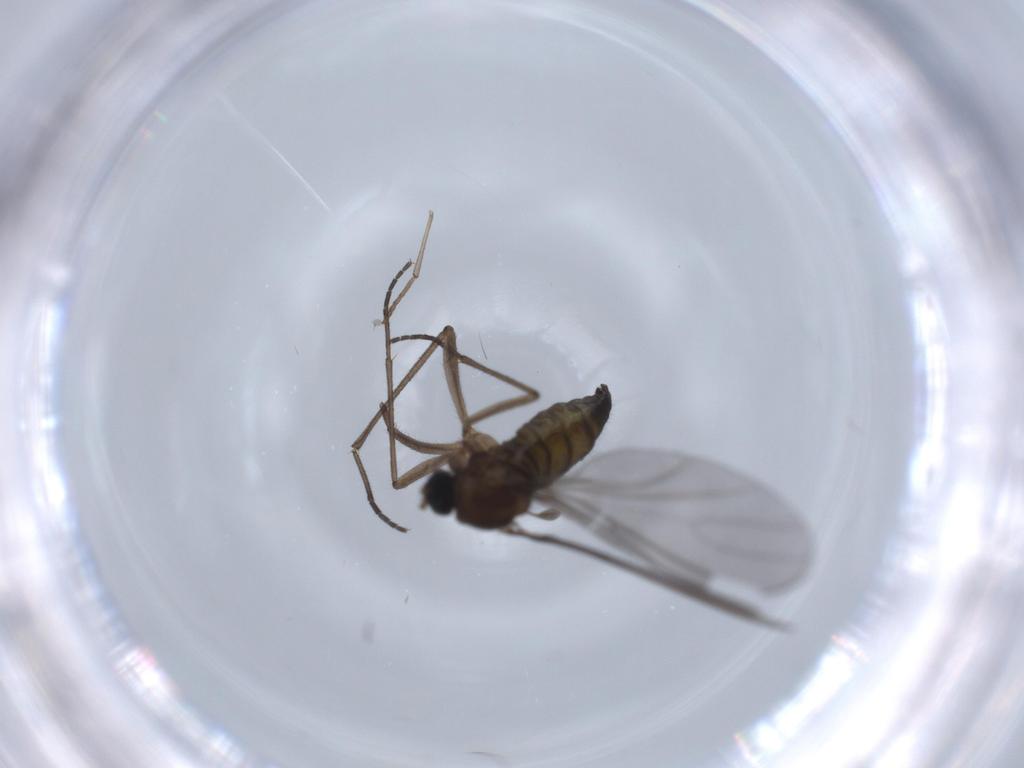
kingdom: Animalia
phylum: Arthropoda
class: Insecta
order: Diptera
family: Sciaridae
